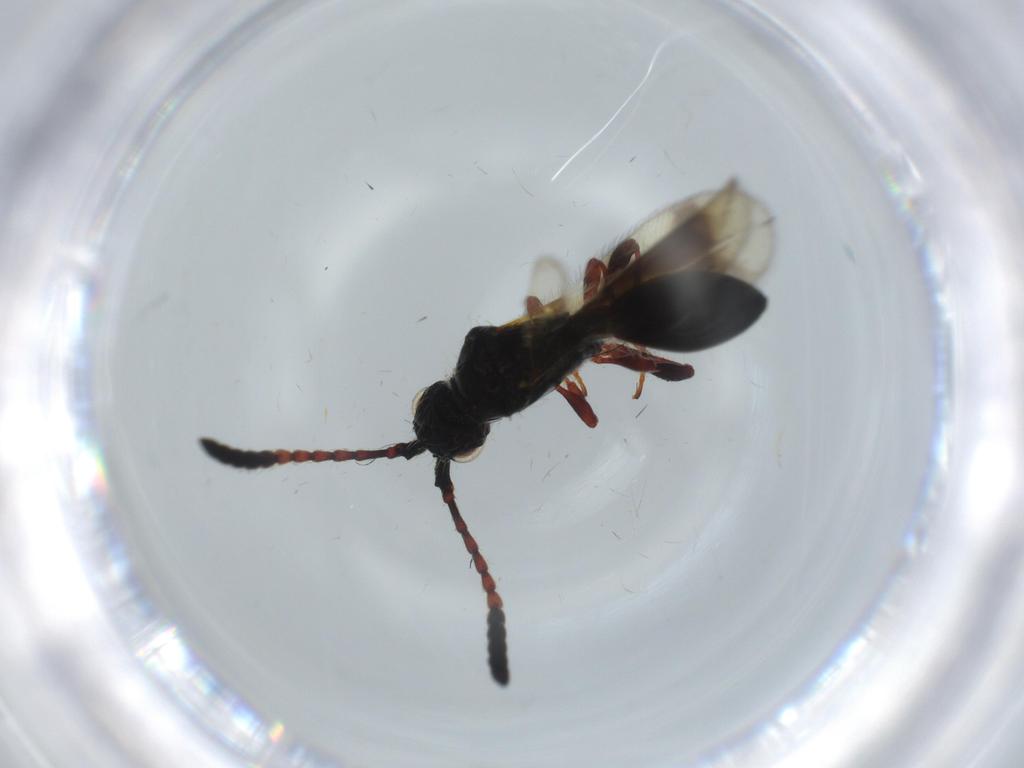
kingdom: Animalia
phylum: Arthropoda
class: Insecta
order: Hymenoptera
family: Diapriidae
